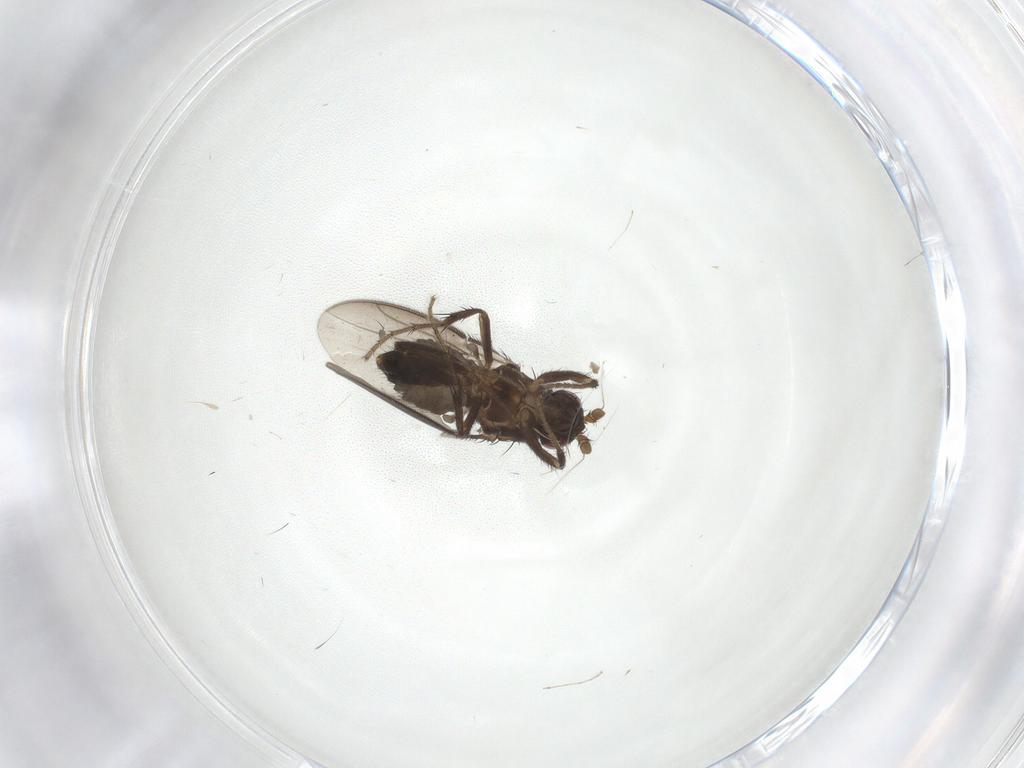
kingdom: Animalia
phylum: Arthropoda
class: Insecta
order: Diptera
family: Sphaeroceridae
